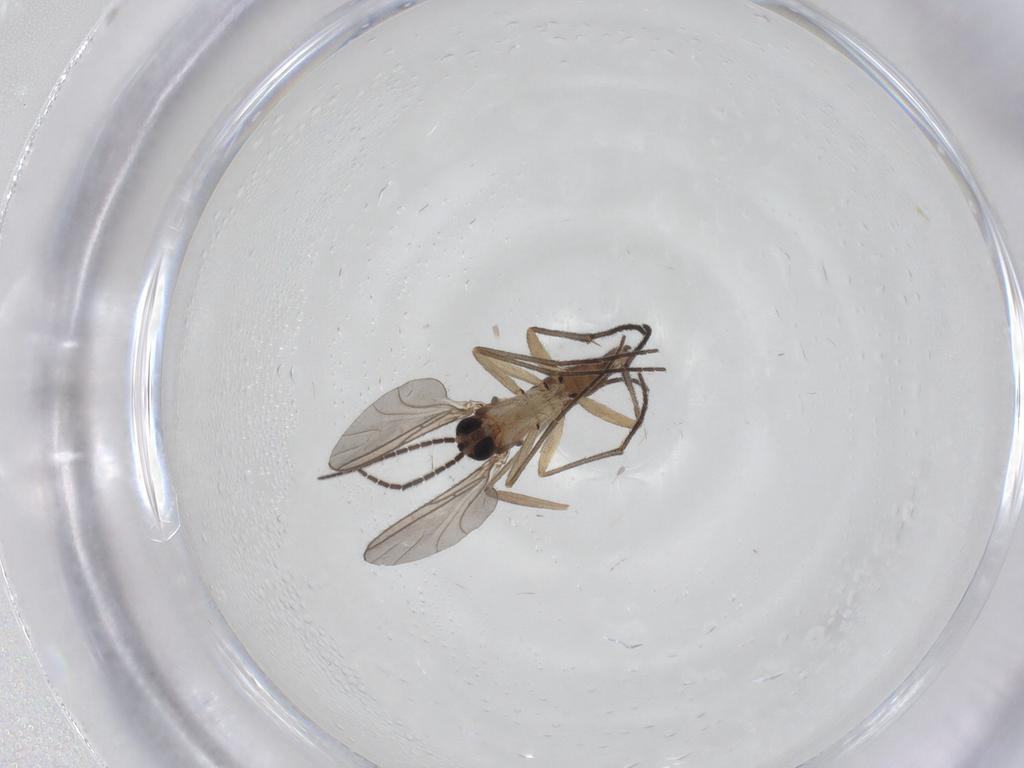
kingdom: Animalia
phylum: Arthropoda
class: Insecta
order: Diptera
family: Sciaridae
